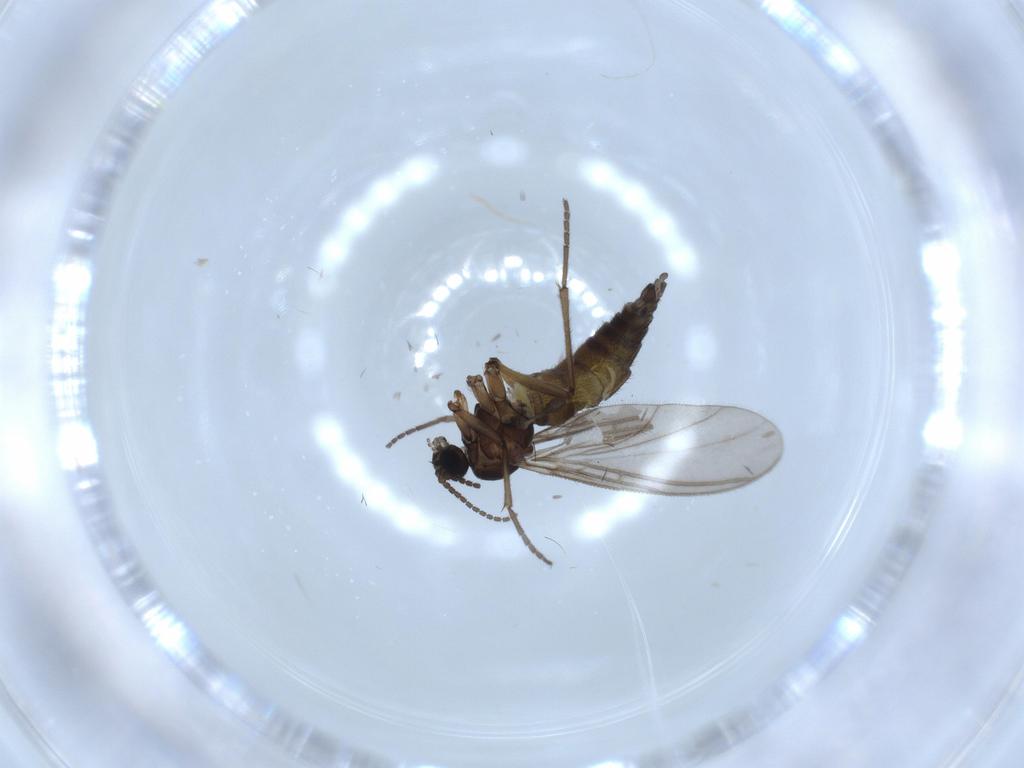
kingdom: Animalia
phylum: Arthropoda
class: Insecta
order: Diptera
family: Sciaridae
